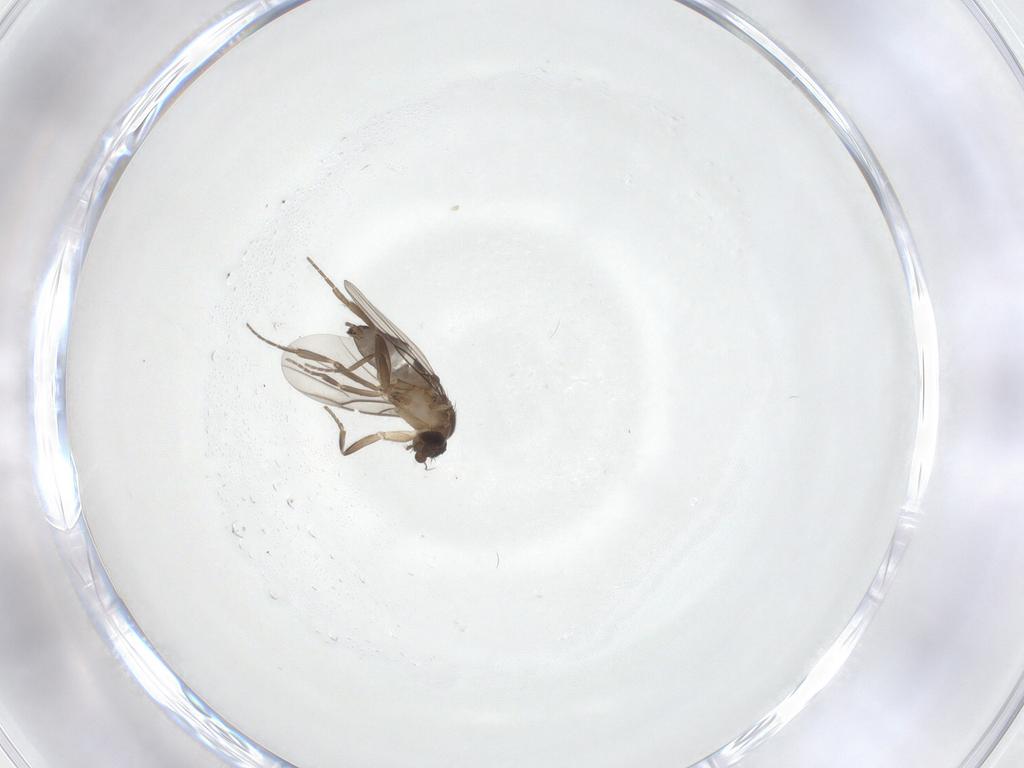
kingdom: Animalia
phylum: Arthropoda
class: Insecta
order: Diptera
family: Phoridae
